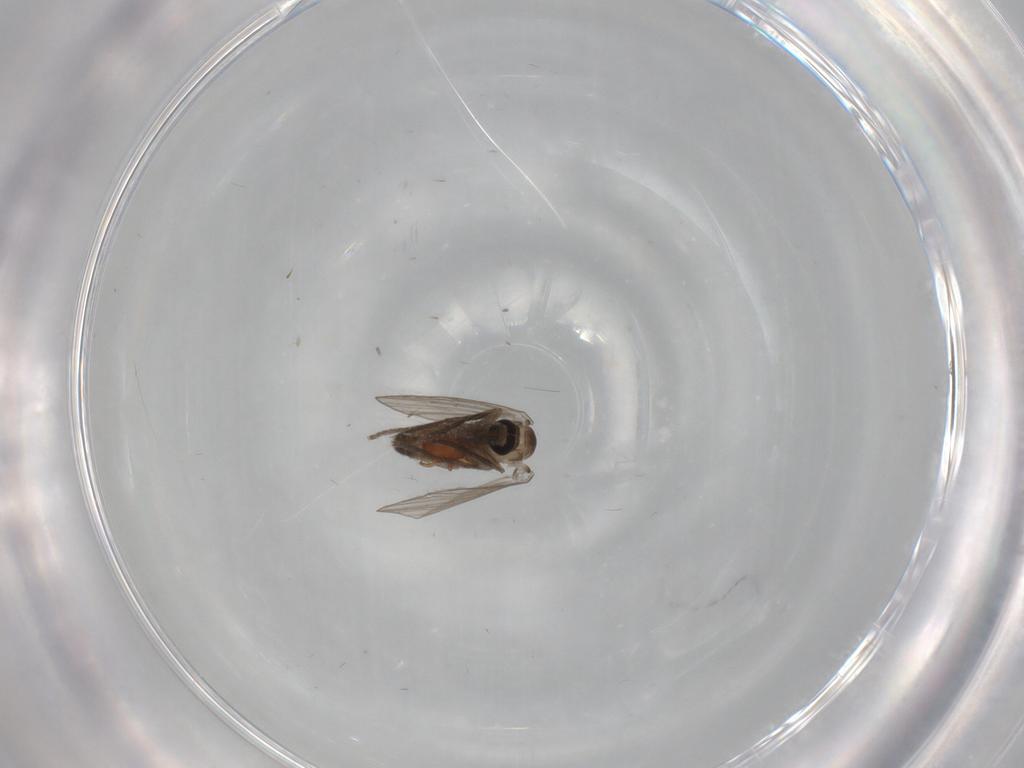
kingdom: Animalia
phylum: Arthropoda
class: Insecta
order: Diptera
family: Psychodidae
